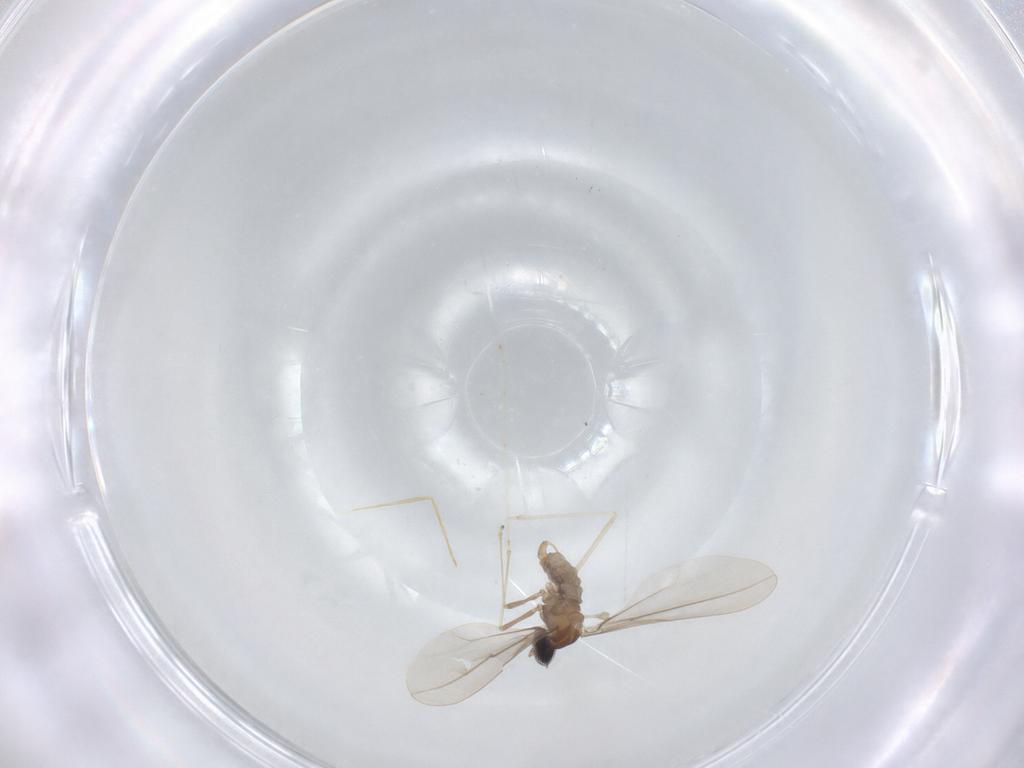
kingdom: Animalia
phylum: Arthropoda
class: Insecta
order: Diptera
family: Cecidomyiidae
